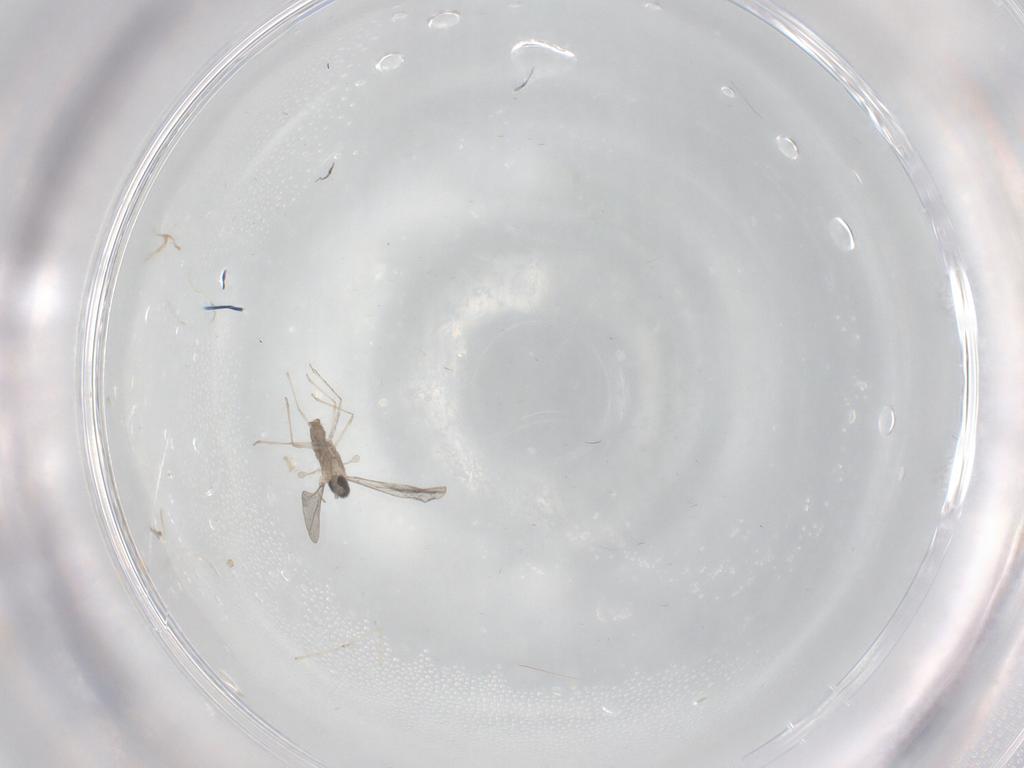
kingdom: Animalia
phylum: Arthropoda
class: Insecta
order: Diptera
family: Cecidomyiidae
